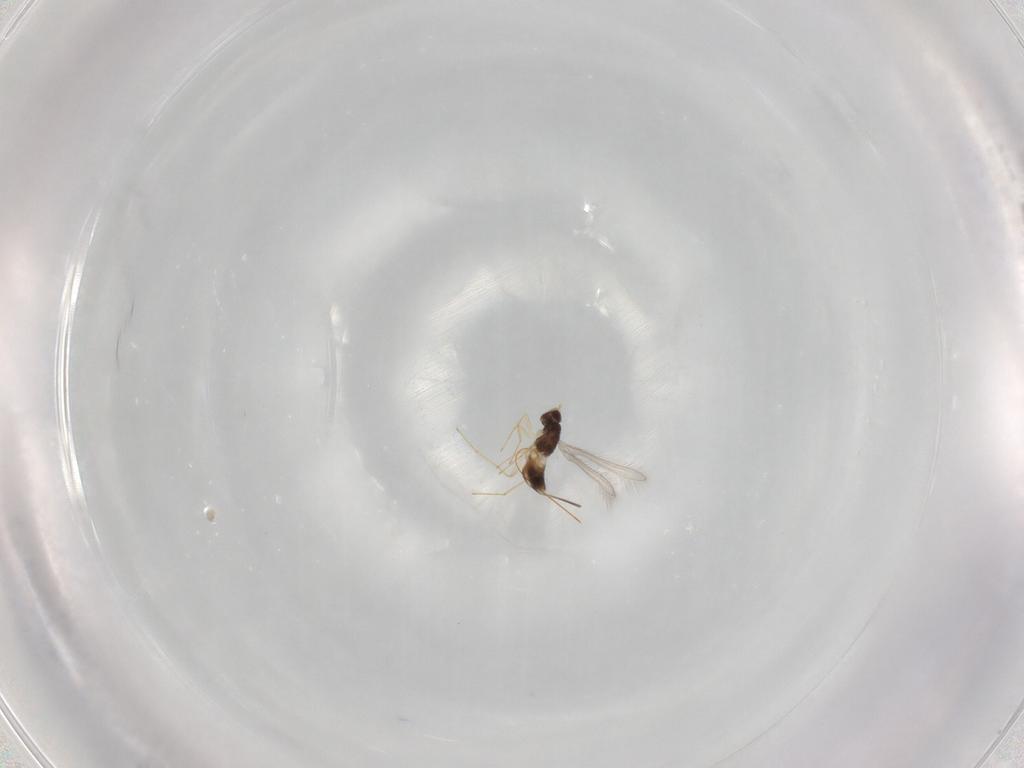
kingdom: Animalia
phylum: Arthropoda
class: Insecta
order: Hymenoptera
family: Mymaridae
